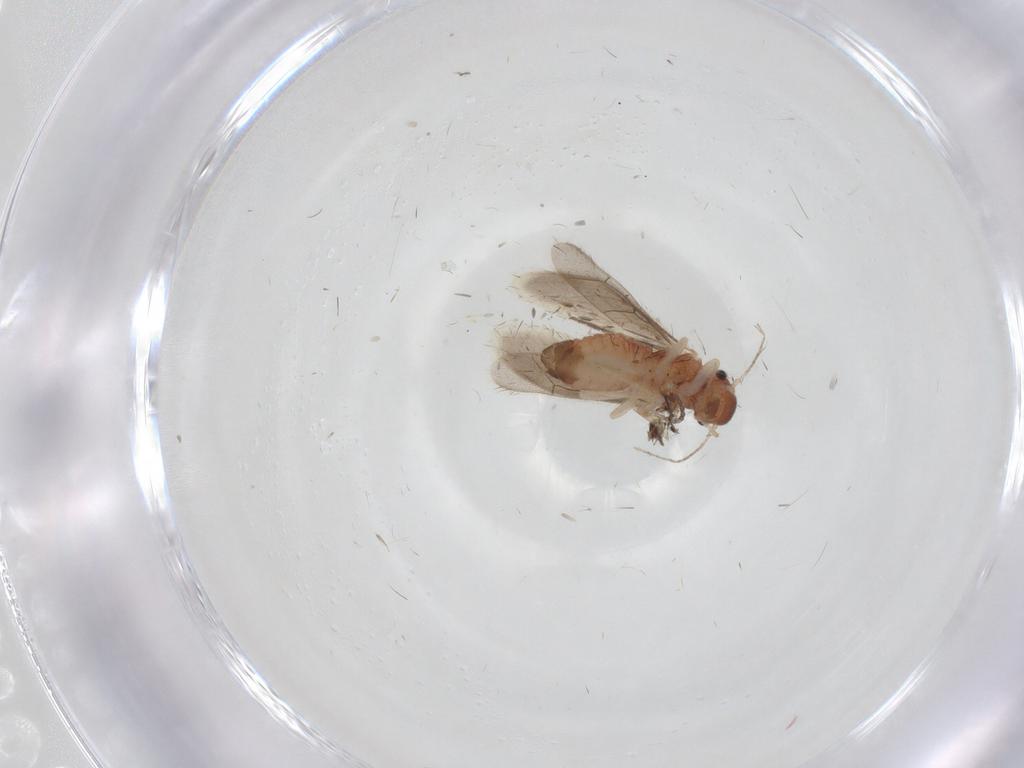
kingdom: Animalia
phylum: Arthropoda
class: Insecta
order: Psocodea
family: Archipsocidae
